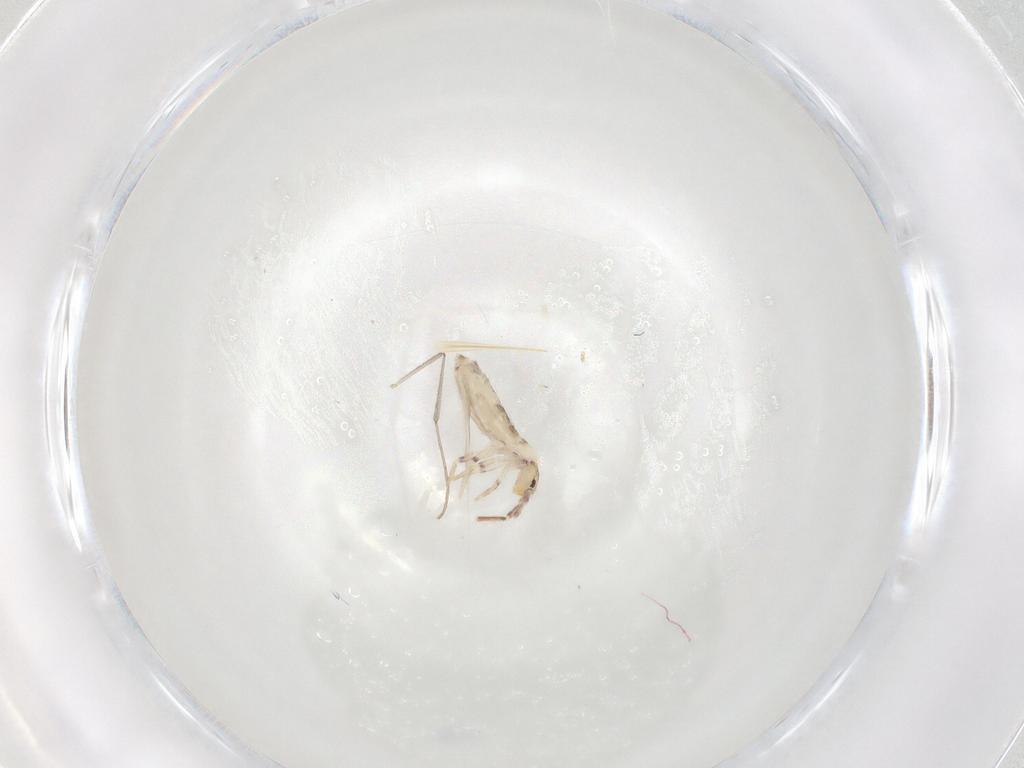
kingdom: Animalia
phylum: Arthropoda
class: Collembola
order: Entomobryomorpha
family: Entomobryidae
